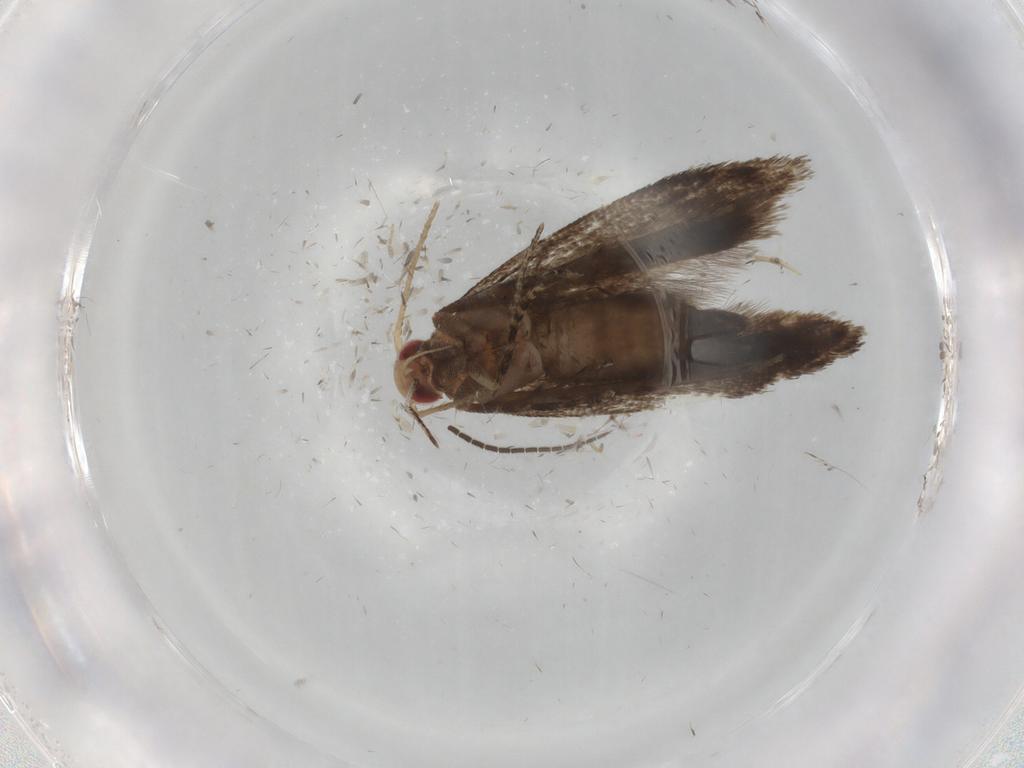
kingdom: Animalia
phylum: Arthropoda
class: Insecta
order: Lepidoptera
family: Gelechiidae
